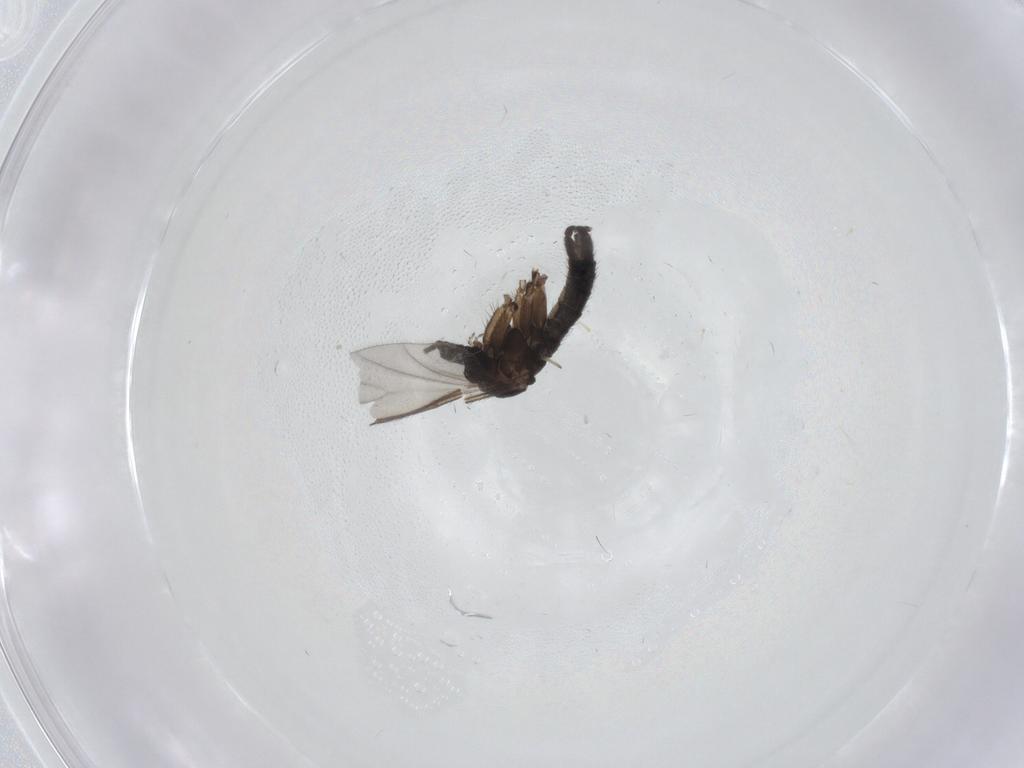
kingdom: Animalia
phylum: Arthropoda
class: Insecta
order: Diptera
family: Sciaridae
